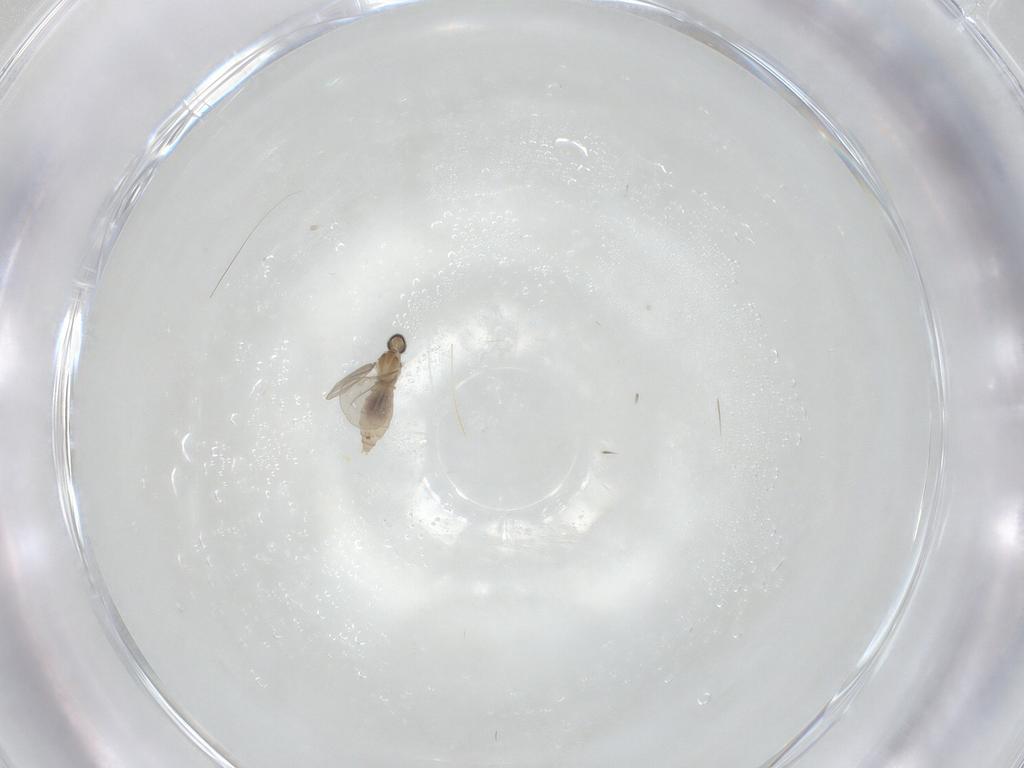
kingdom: Animalia
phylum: Arthropoda
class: Insecta
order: Diptera
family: Cecidomyiidae
